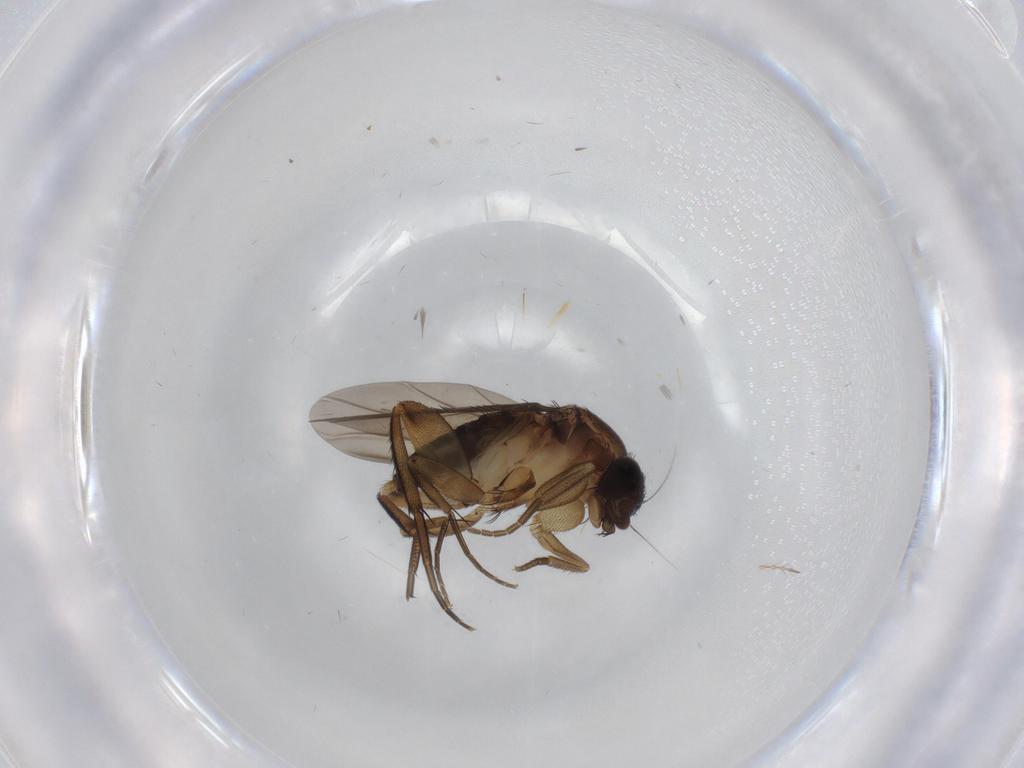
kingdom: Animalia
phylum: Arthropoda
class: Insecta
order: Diptera
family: Phoridae
